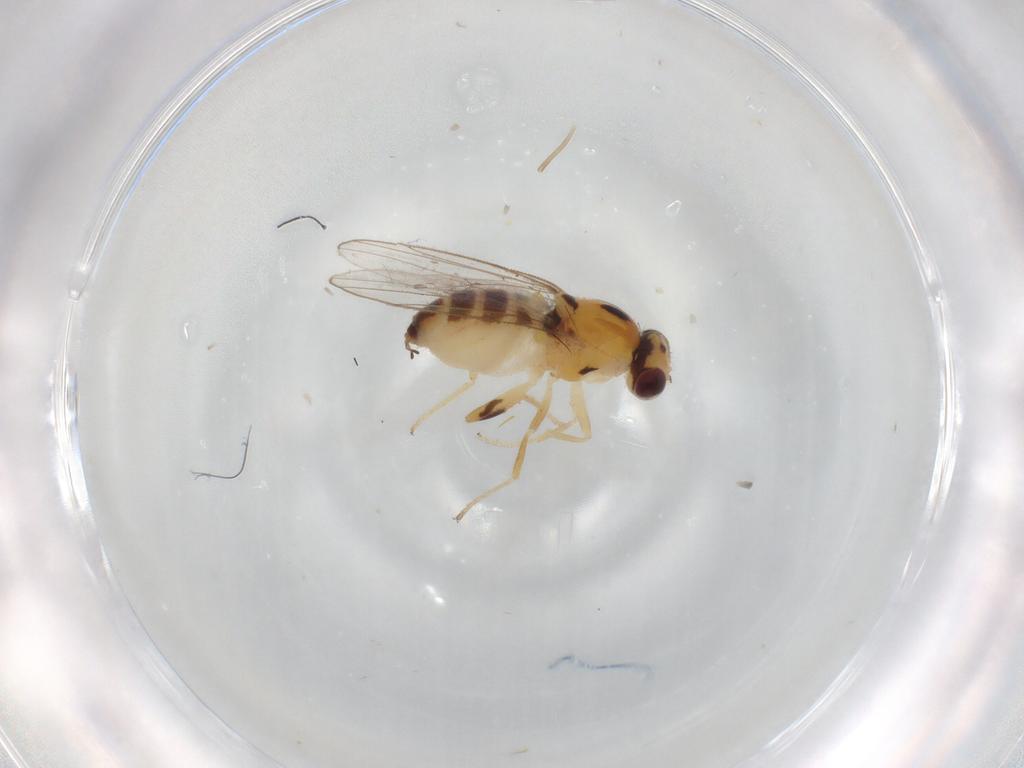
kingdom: Animalia
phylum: Arthropoda
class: Insecta
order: Diptera
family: Chloropidae
